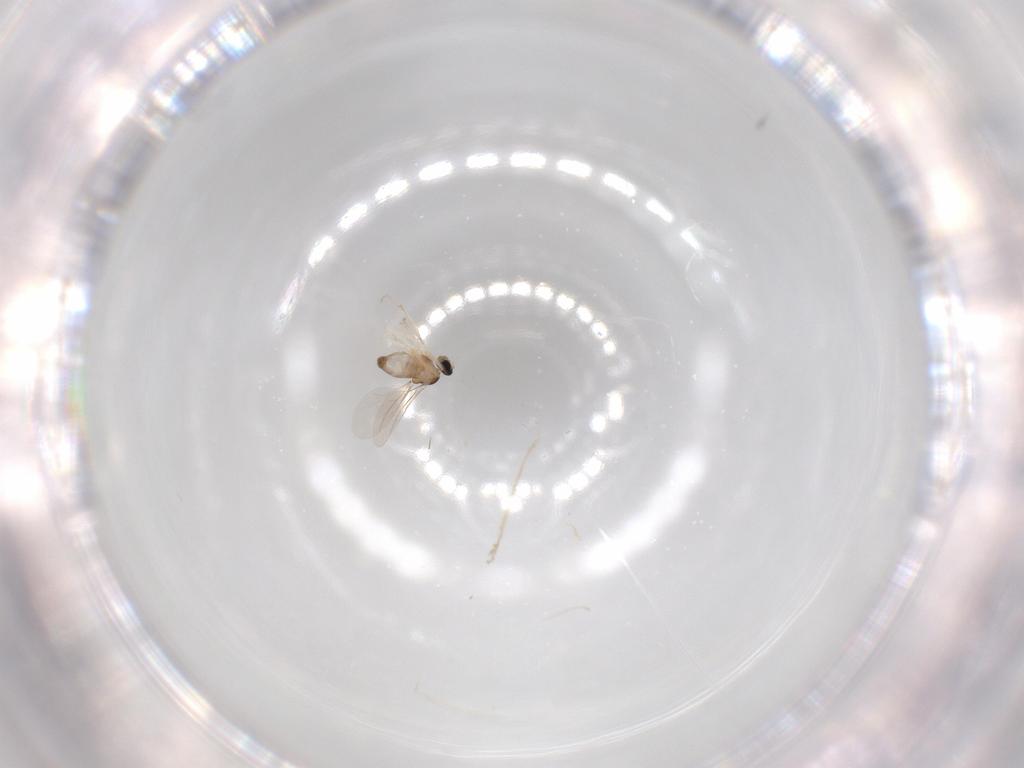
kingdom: Animalia
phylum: Arthropoda
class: Insecta
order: Diptera
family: Cecidomyiidae
